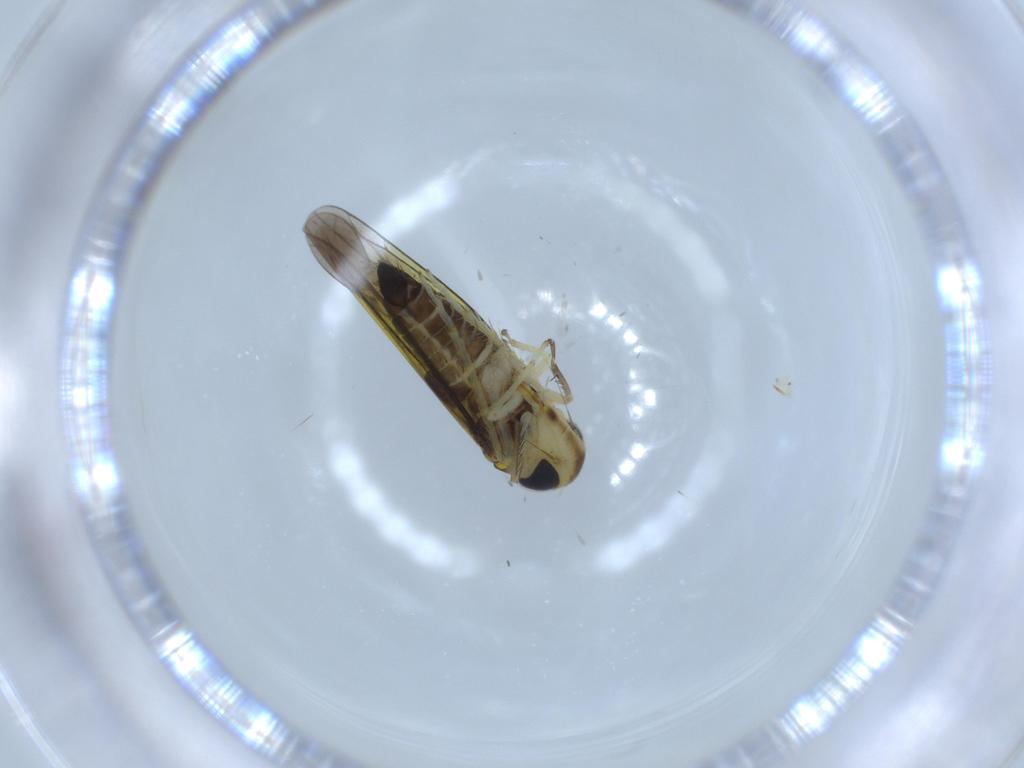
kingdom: Animalia
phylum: Arthropoda
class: Insecta
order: Hemiptera
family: Cicadellidae
